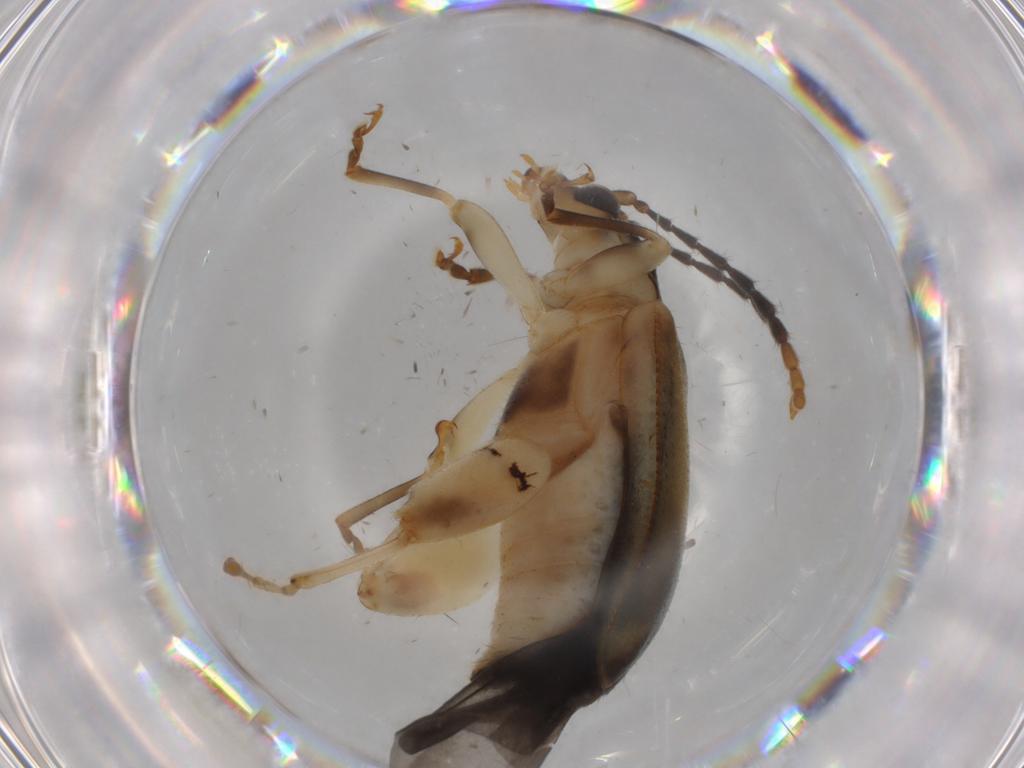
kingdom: Animalia
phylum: Arthropoda
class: Insecta
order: Coleoptera
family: Chrysomelidae
